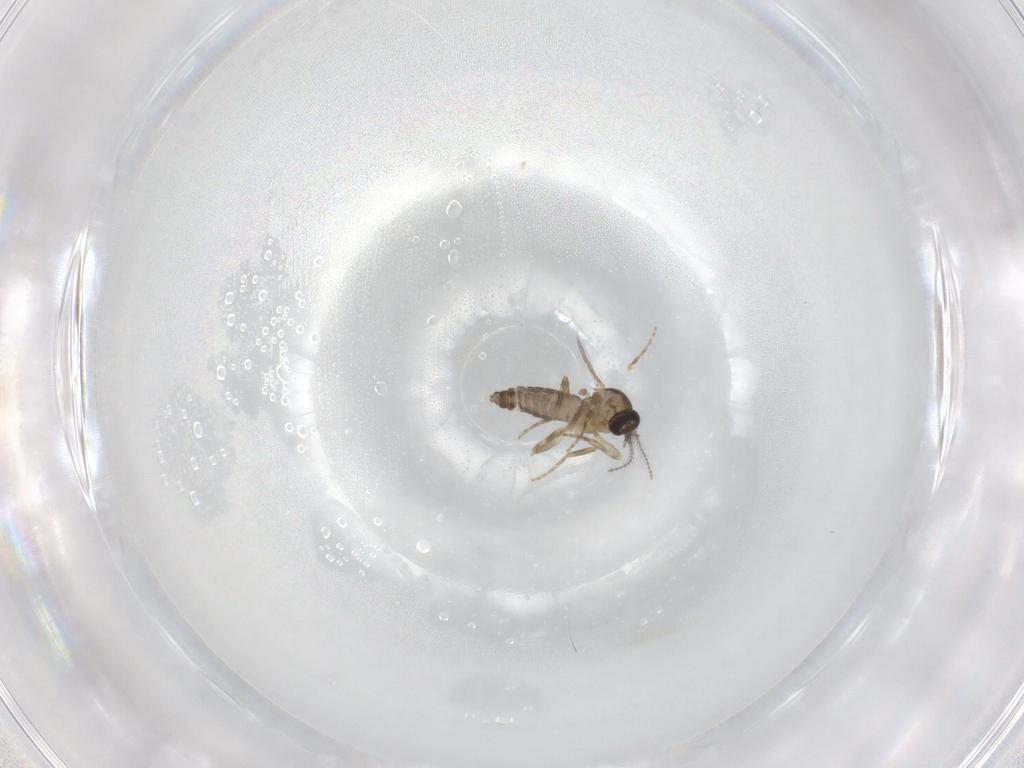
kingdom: Animalia
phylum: Arthropoda
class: Insecta
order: Diptera
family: Ceratopogonidae
